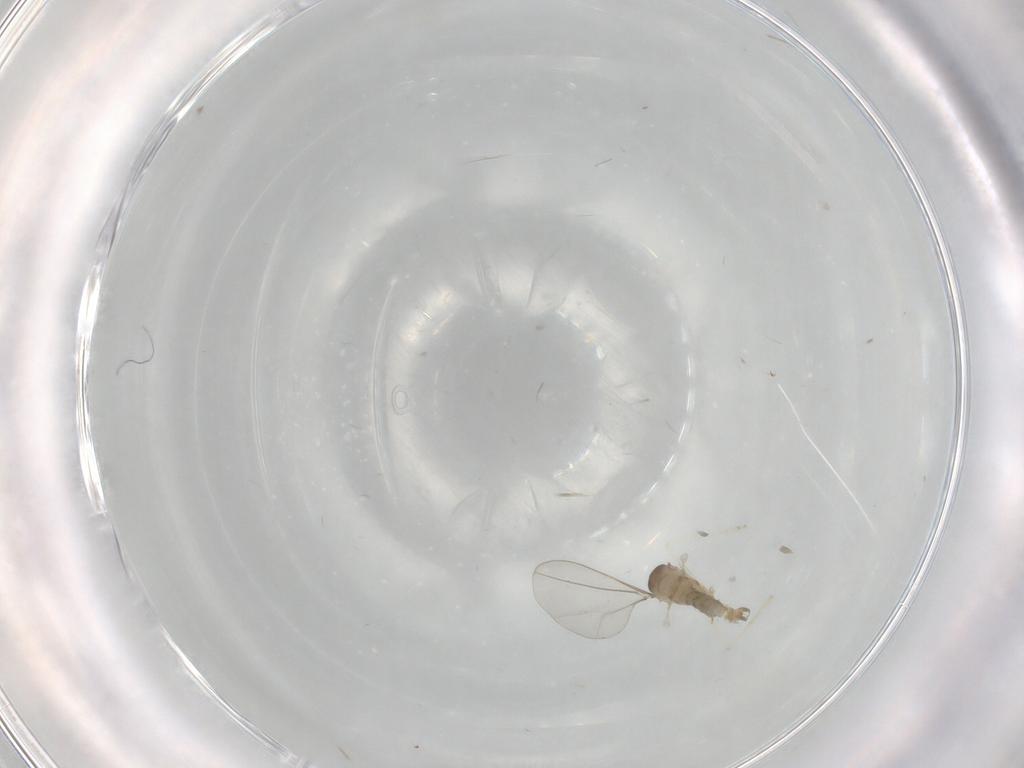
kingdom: Animalia
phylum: Arthropoda
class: Insecta
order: Diptera
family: Cecidomyiidae
